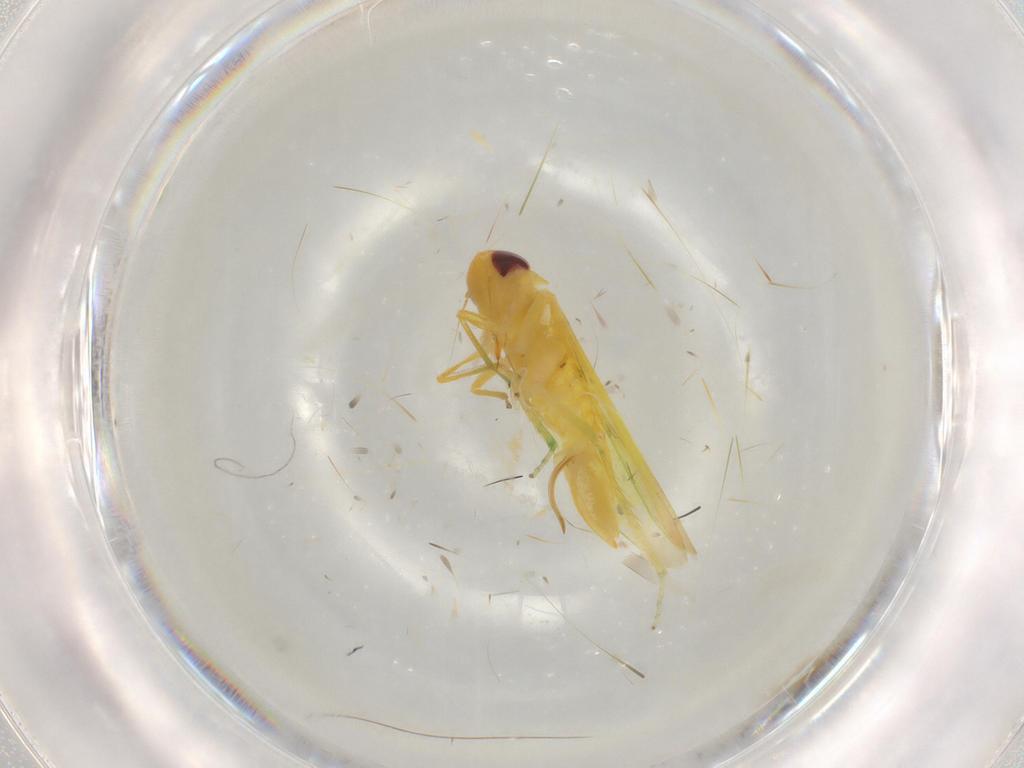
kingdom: Animalia
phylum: Arthropoda
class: Insecta
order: Hemiptera
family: Cicadellidae
